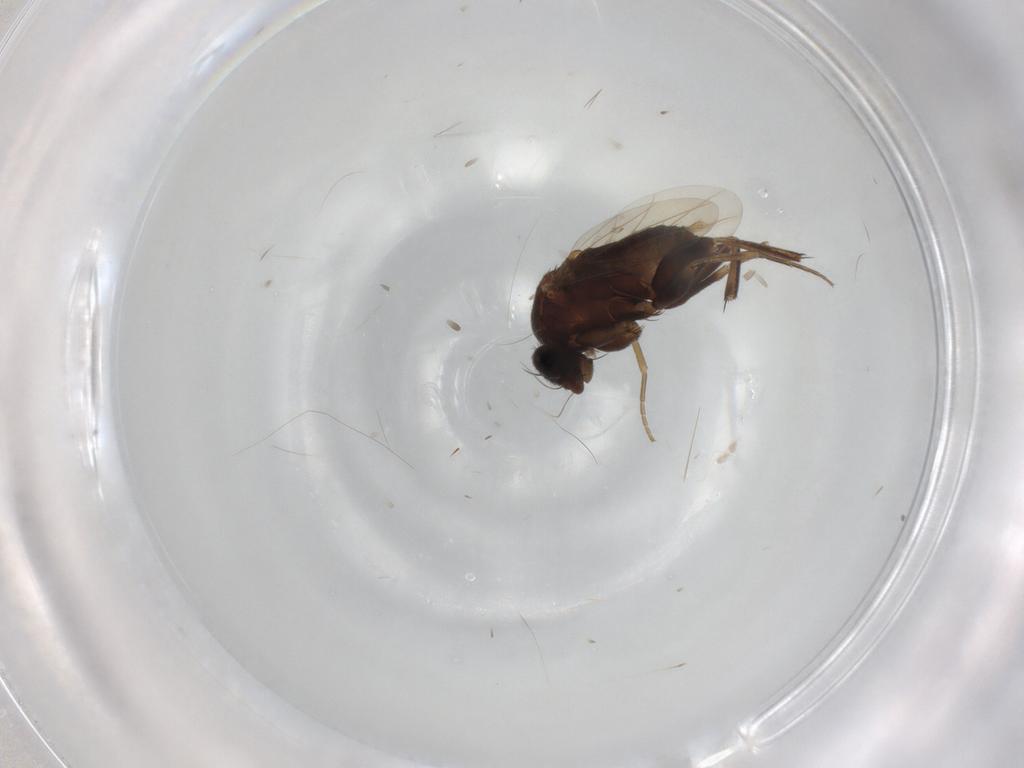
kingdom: Animalia
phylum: Arthropoda
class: Insecta
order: Diptera
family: Phoridae
